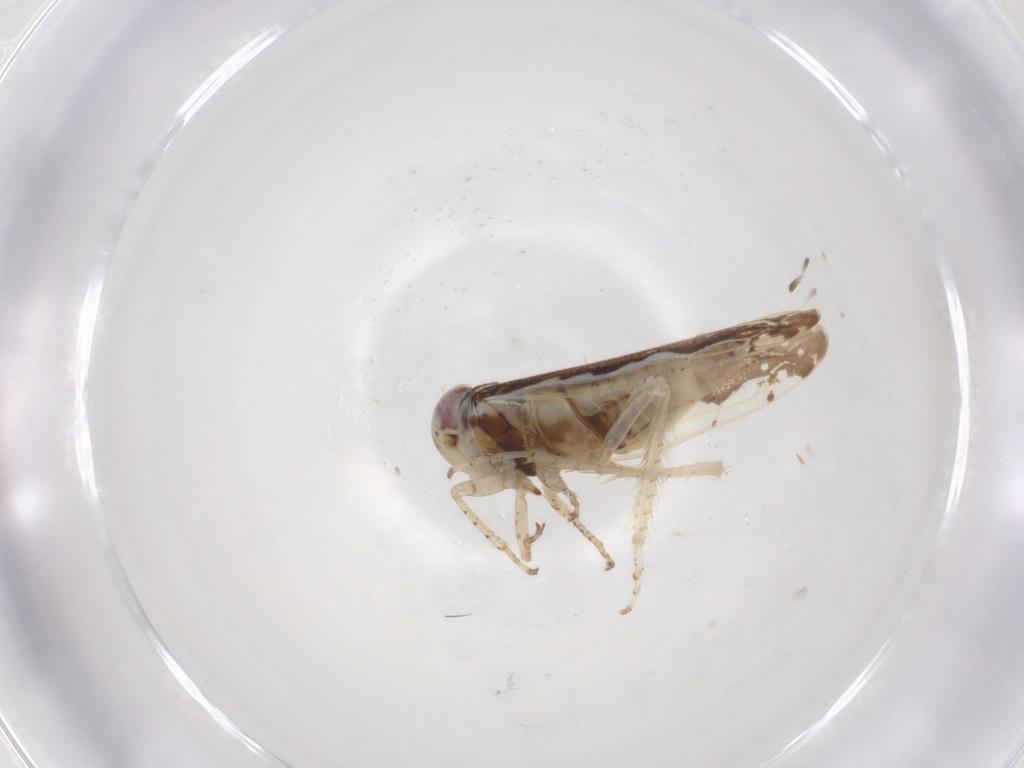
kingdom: Animalia
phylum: Arthropoda
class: Insecta
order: Hemiptera
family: Cicadellidae
